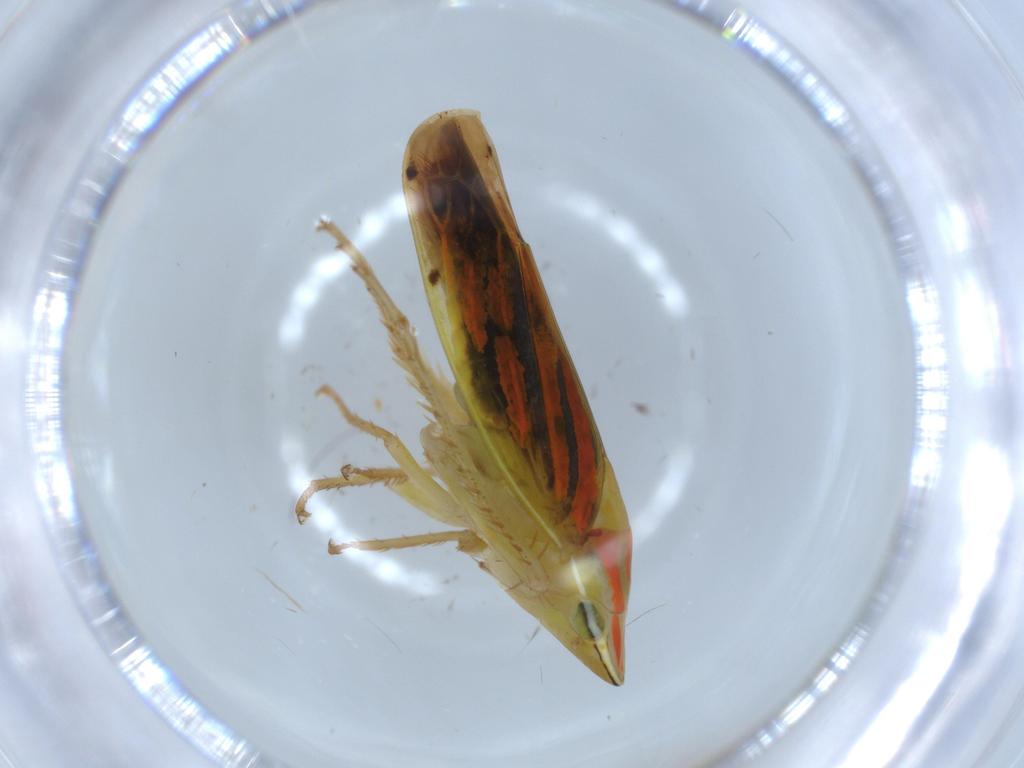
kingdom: Animalia
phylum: Arthropoda
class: Insecta
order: Hemiptera
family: Cicadellidae
